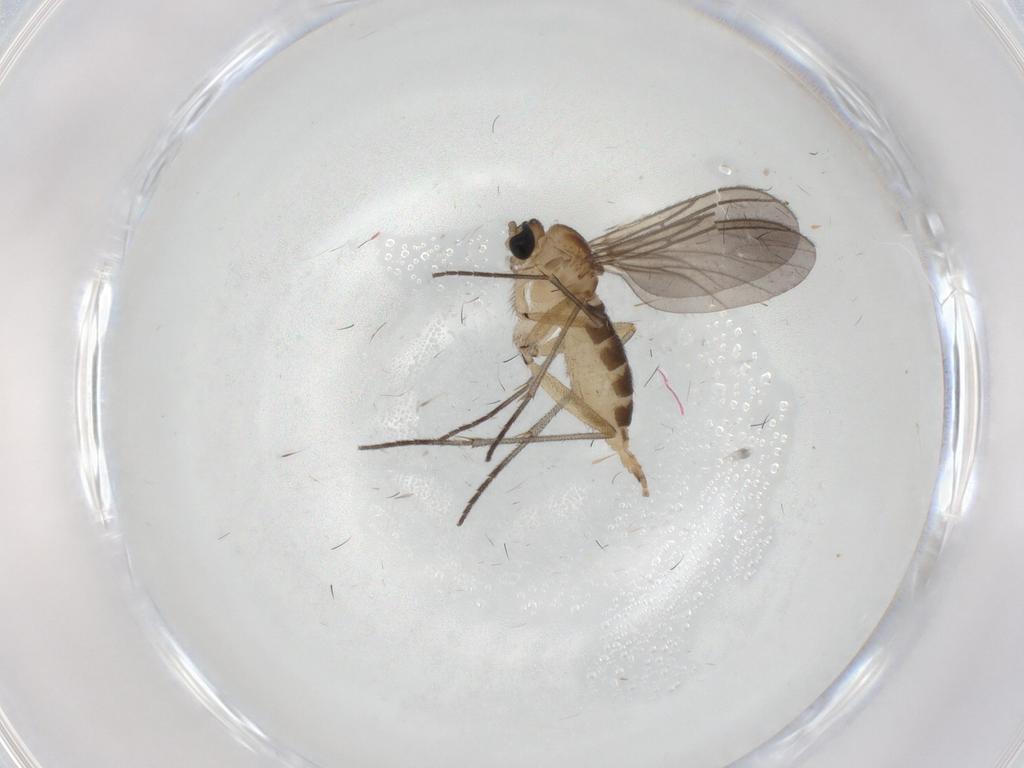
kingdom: Animalia
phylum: Arthropoda
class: Insecta
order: Diptera
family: Sciaridae
